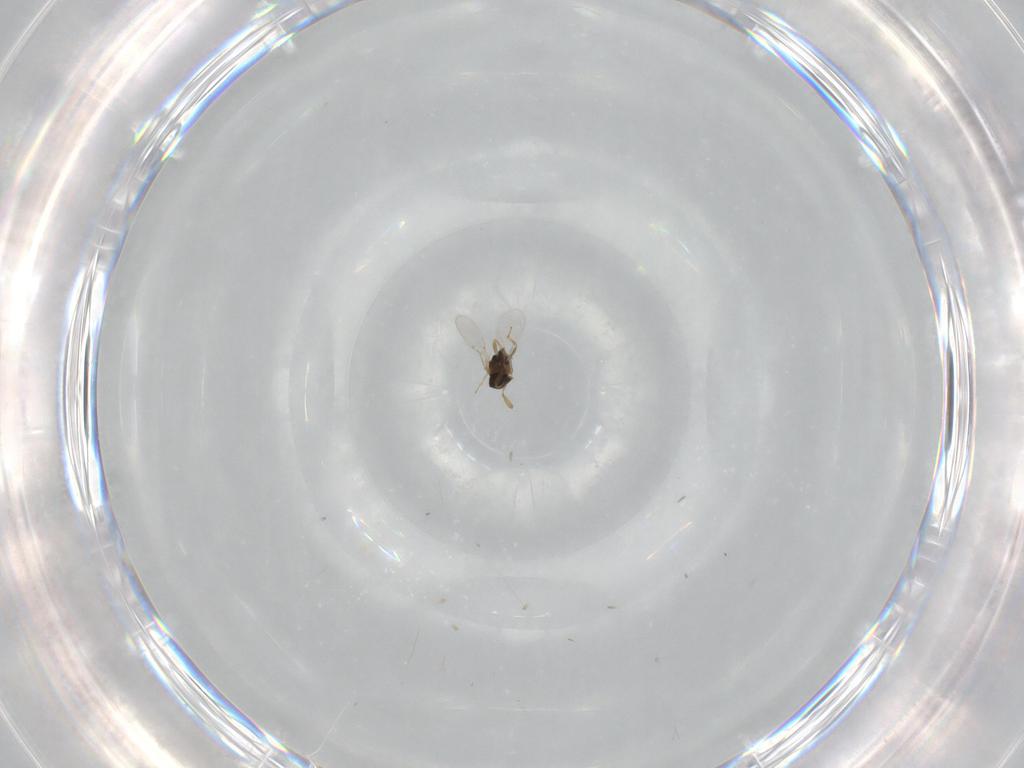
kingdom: Animalia
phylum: Arthropoda
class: Insecta
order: Hymenoptera
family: Encyrtidae
